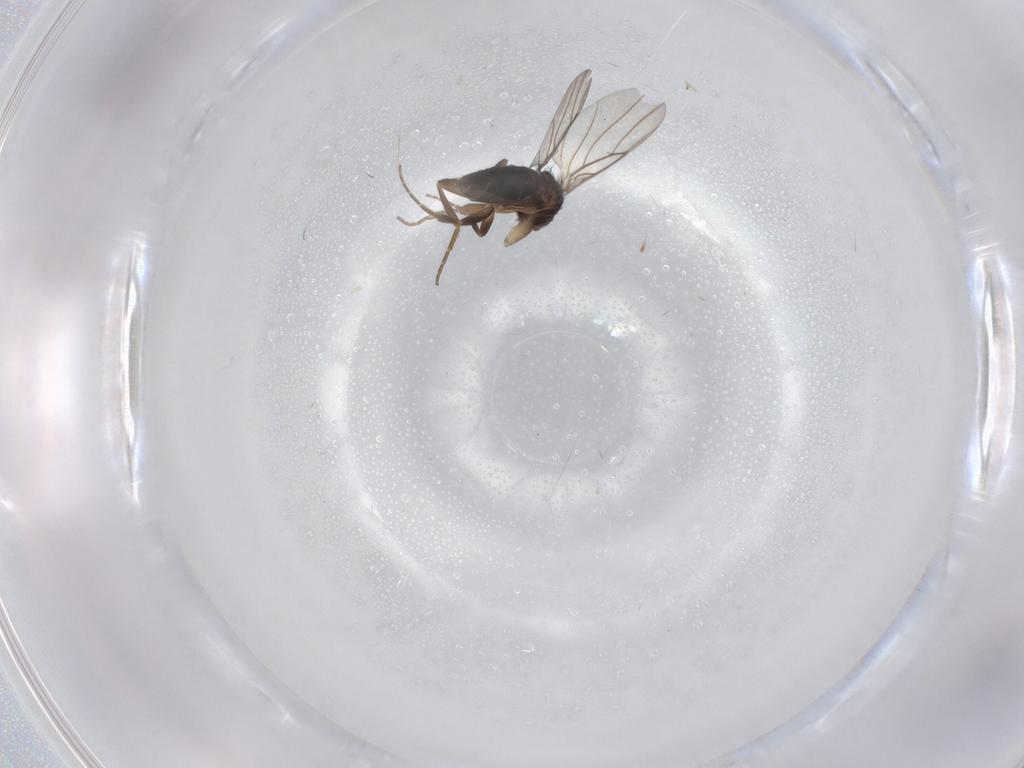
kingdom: Animalia
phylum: Arthropoda
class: Insecta
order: Diptera
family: Phoridae
